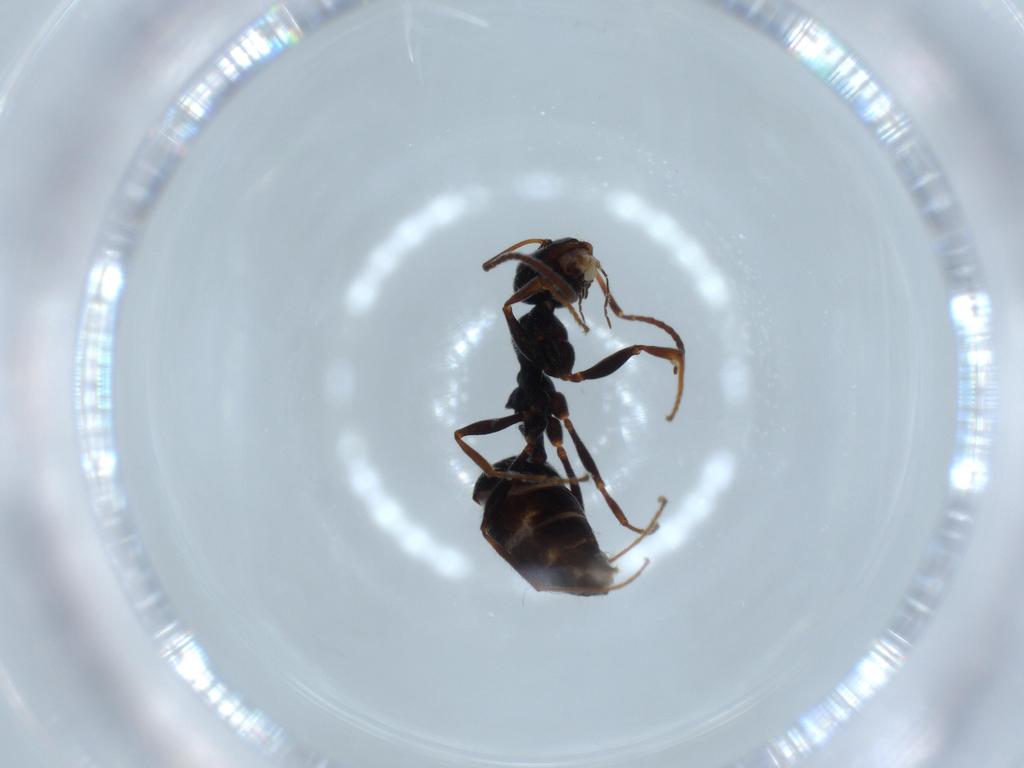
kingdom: Animalia
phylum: Arthropoda
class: Insecta
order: Hymenoptera
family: Formicidae
